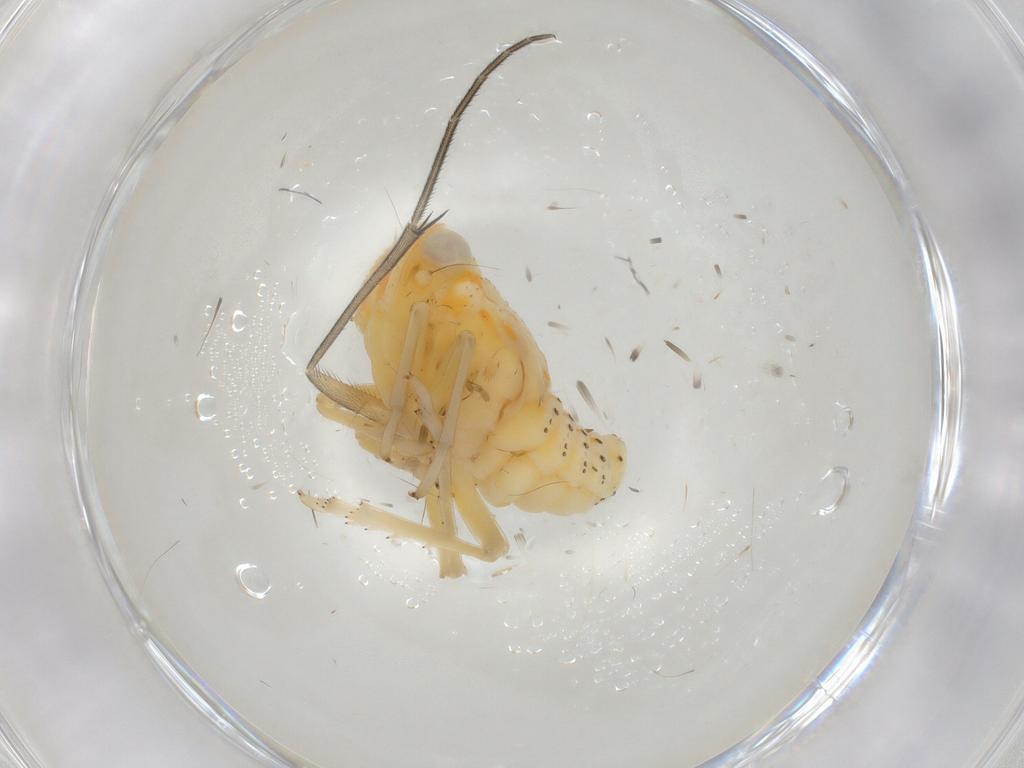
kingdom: Animalia
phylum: Arthropoda
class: Insecta
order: Hemiptera
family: Tropiduchidae
